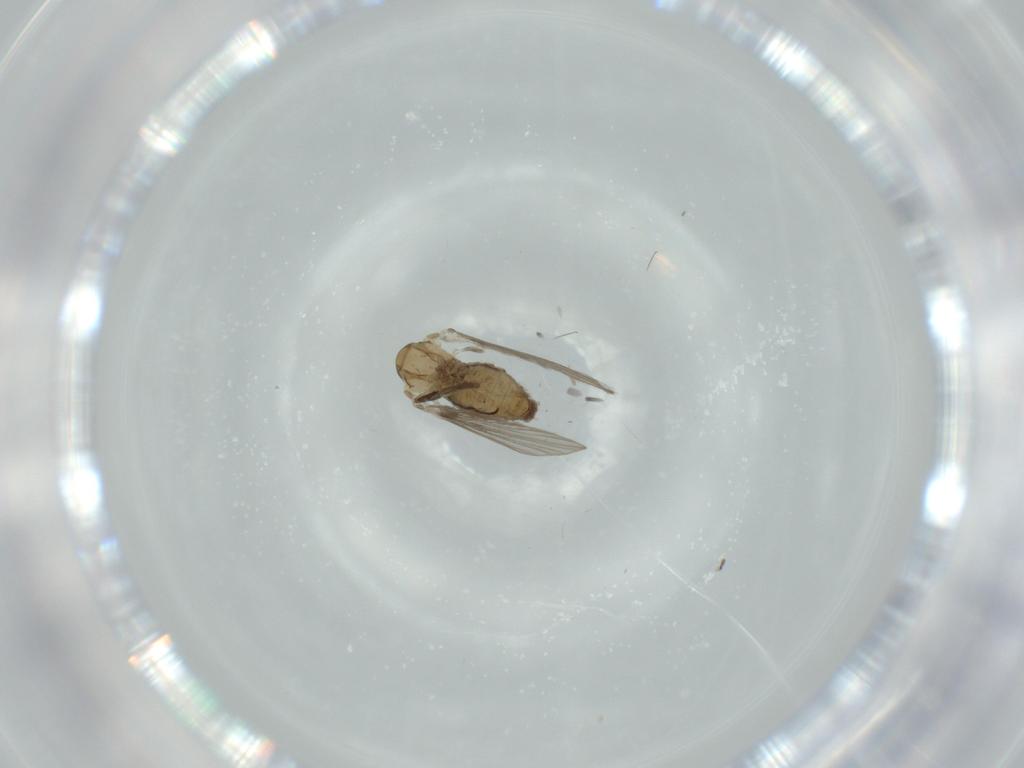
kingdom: Animalia
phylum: Arthropoda
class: Insecta
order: Diptera
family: Psychodidae
